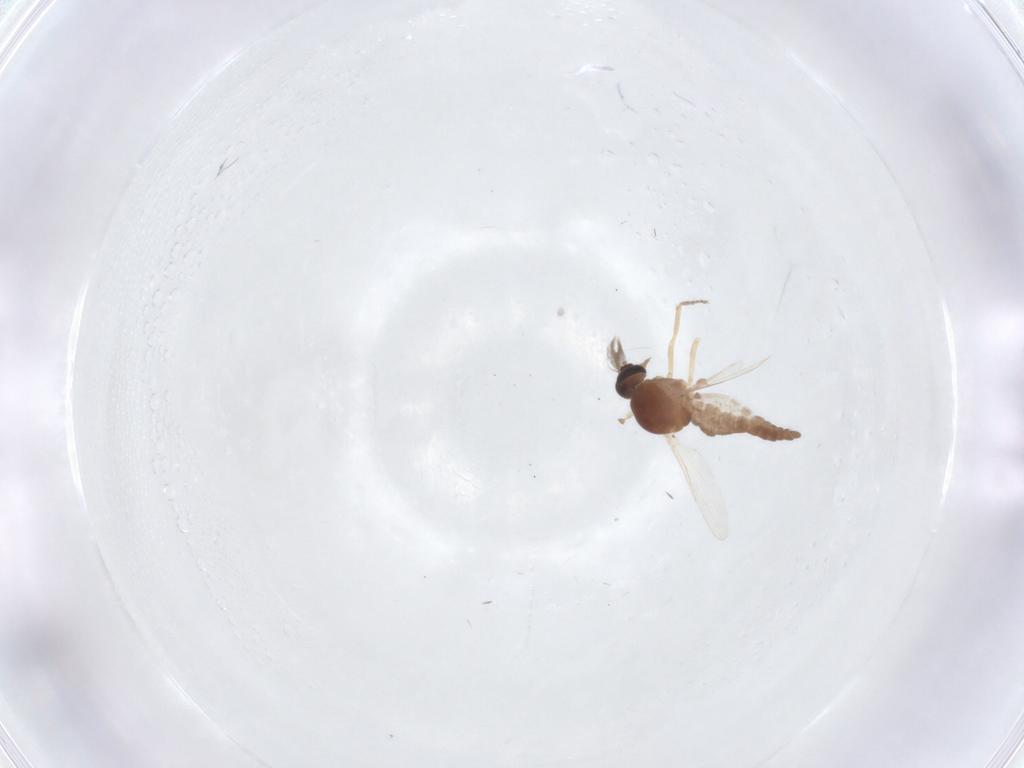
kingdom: Animalia
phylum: Arthropoda
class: Insecta
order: Diptera
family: Ceratopogonidae
